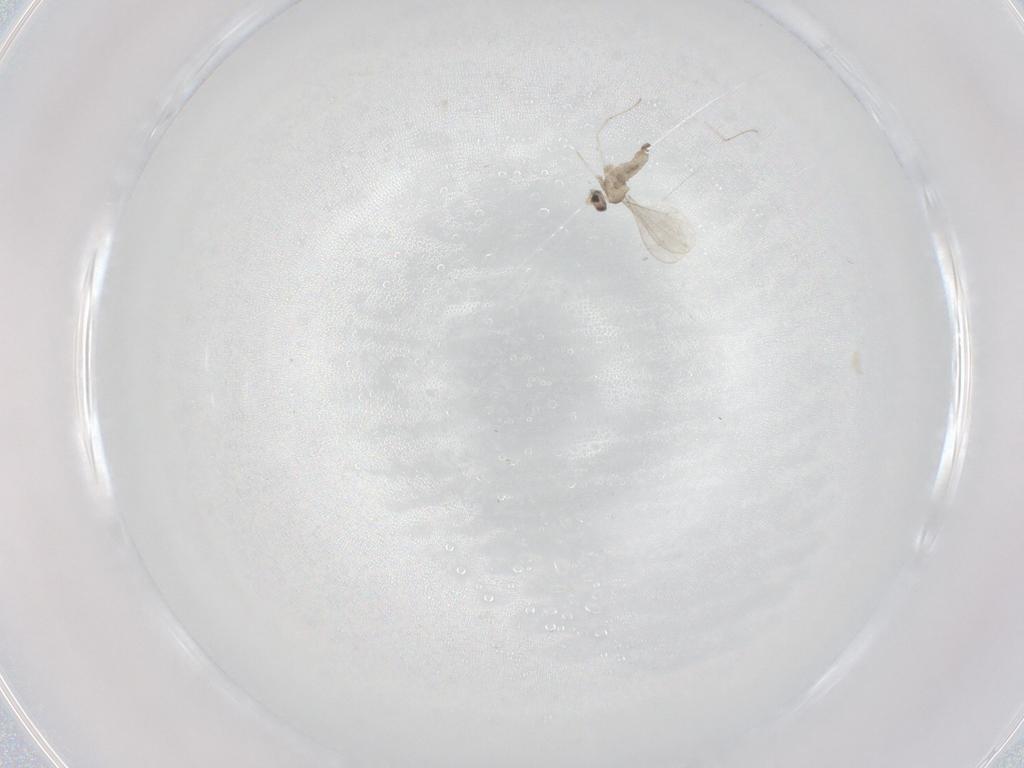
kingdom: Animalia
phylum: Arthropoda
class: Insecta
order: Diptera
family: Cecidomyiidae
